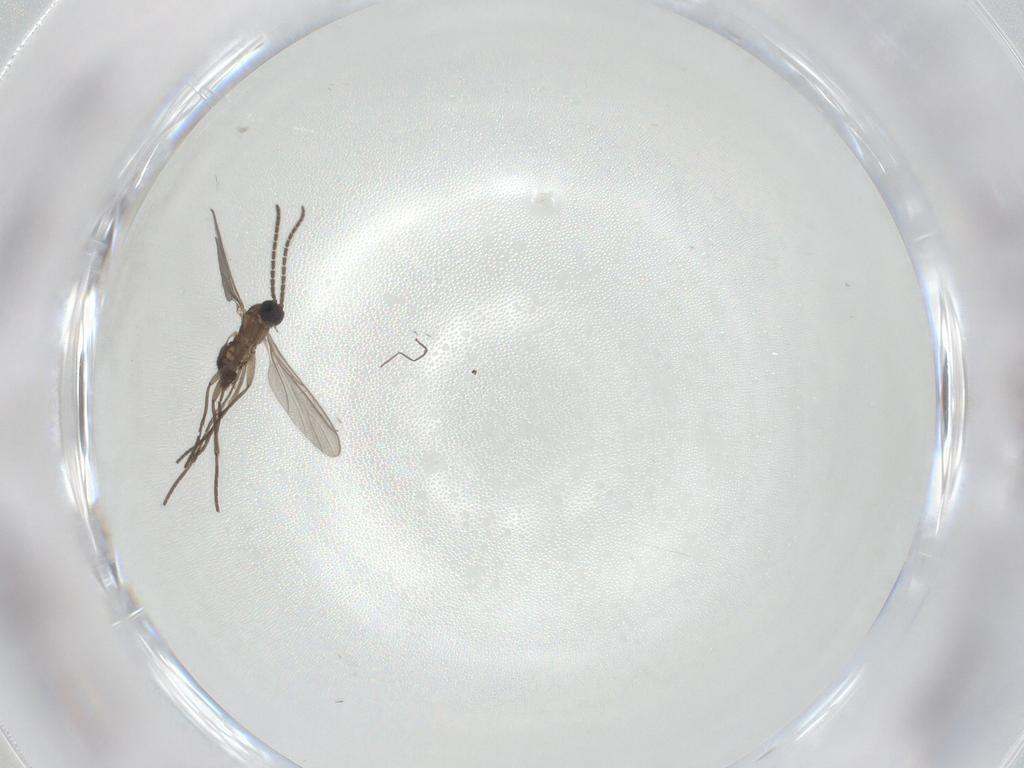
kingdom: Animalia
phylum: Arthropoda
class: Insecta
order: Diptera
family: Sciaridae
